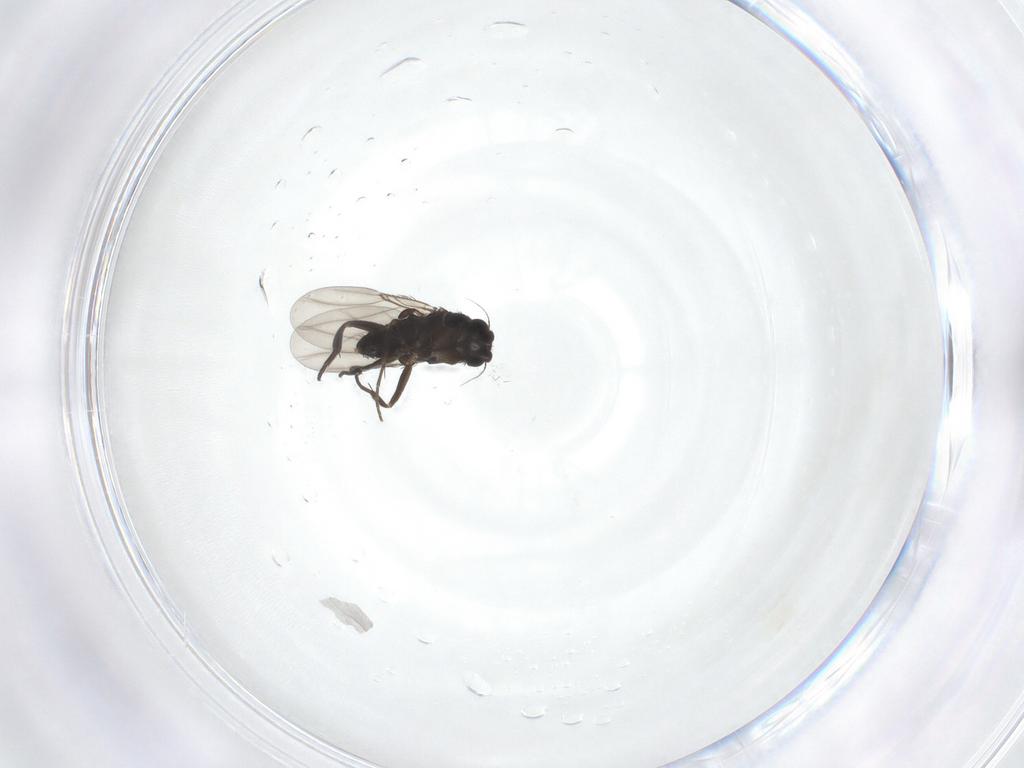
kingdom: Animalia
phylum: Arthropoda
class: Insecta
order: Diptera
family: Phoridae
